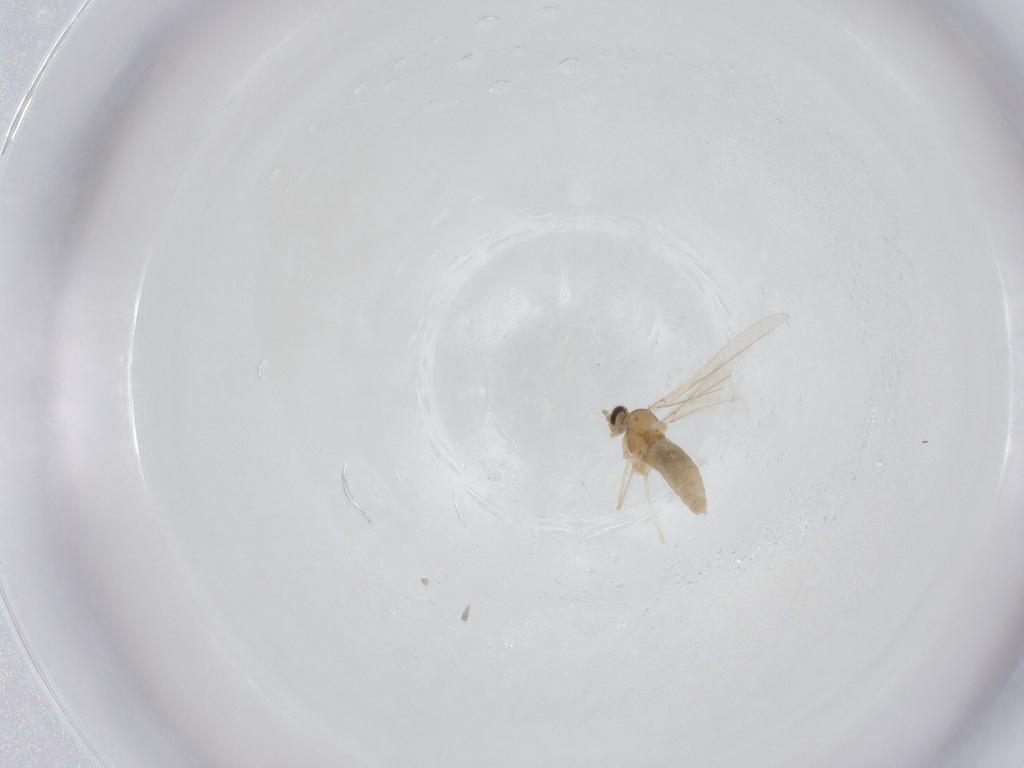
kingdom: Animalia
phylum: Arthropoda
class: Insecta
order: Diptera
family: Cecidomyiidae
